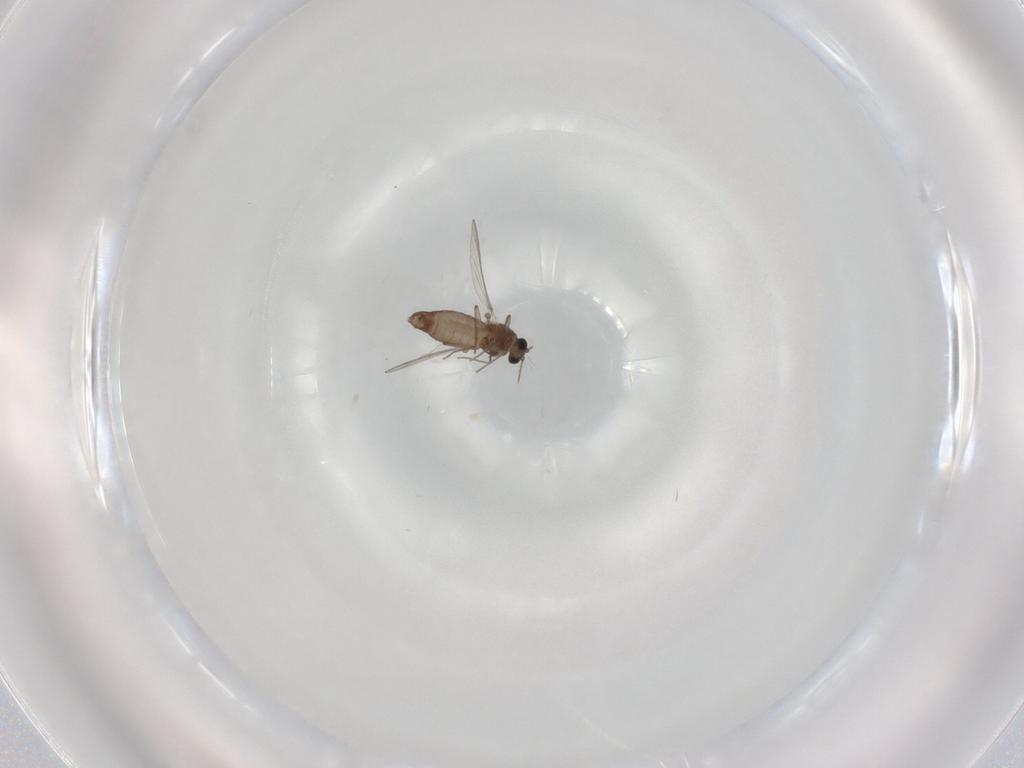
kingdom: Animalia
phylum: Arthropoda
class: Insecta
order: Diptera
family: Chironomidae
